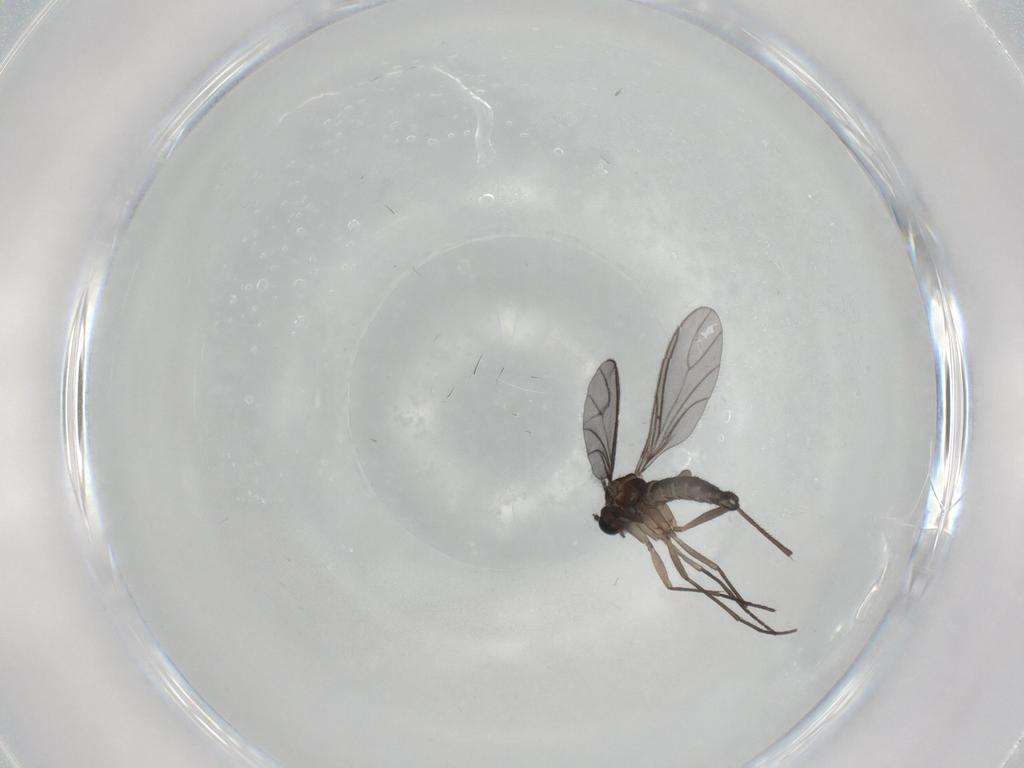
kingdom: Animalia
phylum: Arthropoda
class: Insecta
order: Diptera
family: Sciaridae
